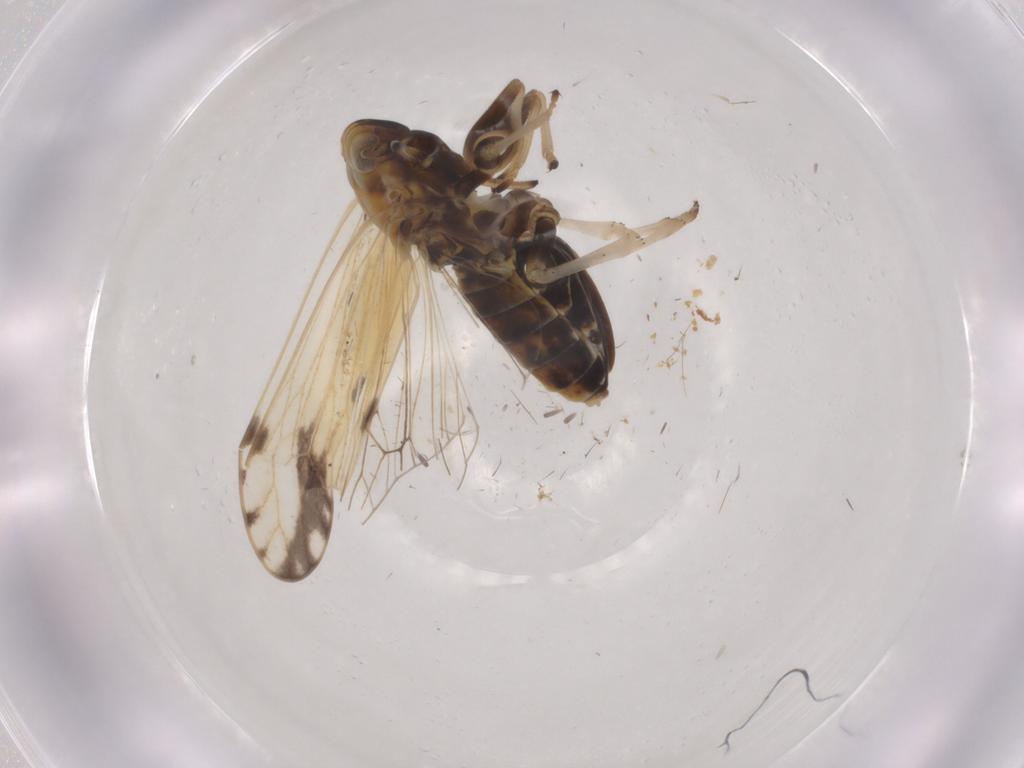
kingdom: Animalia
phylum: Arthropoda
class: Insecta
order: Hemiptera
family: Delphacidae
